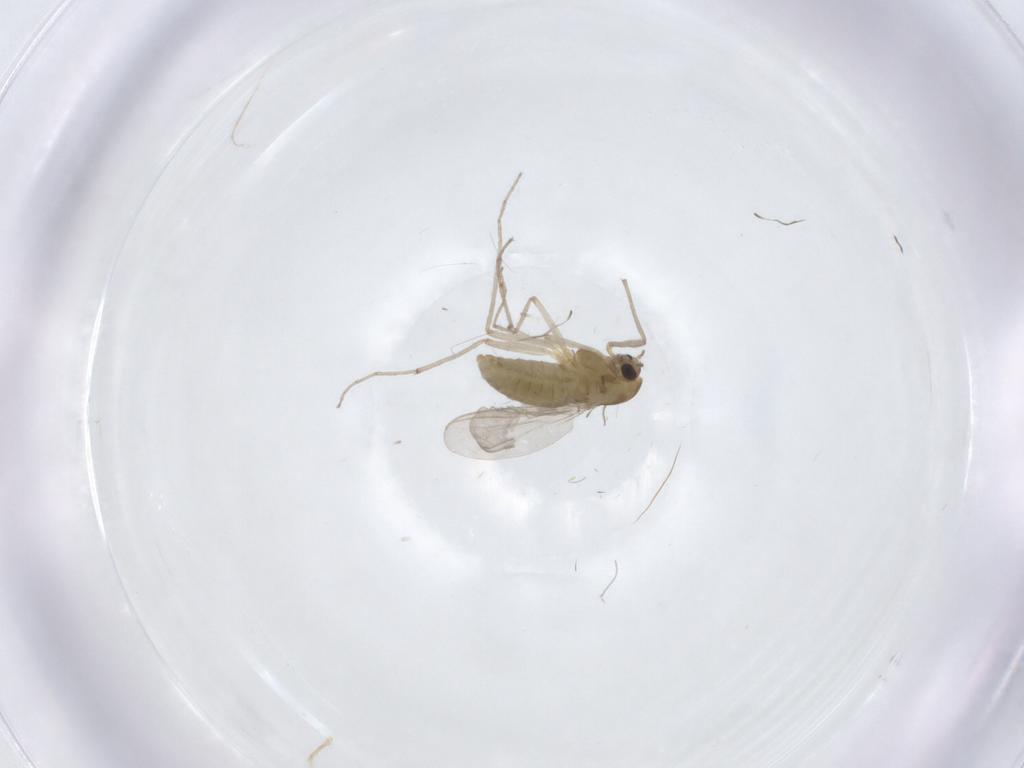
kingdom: Animalia
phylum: Arthropoda
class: Insecta
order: Diptera
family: Chironomidae
